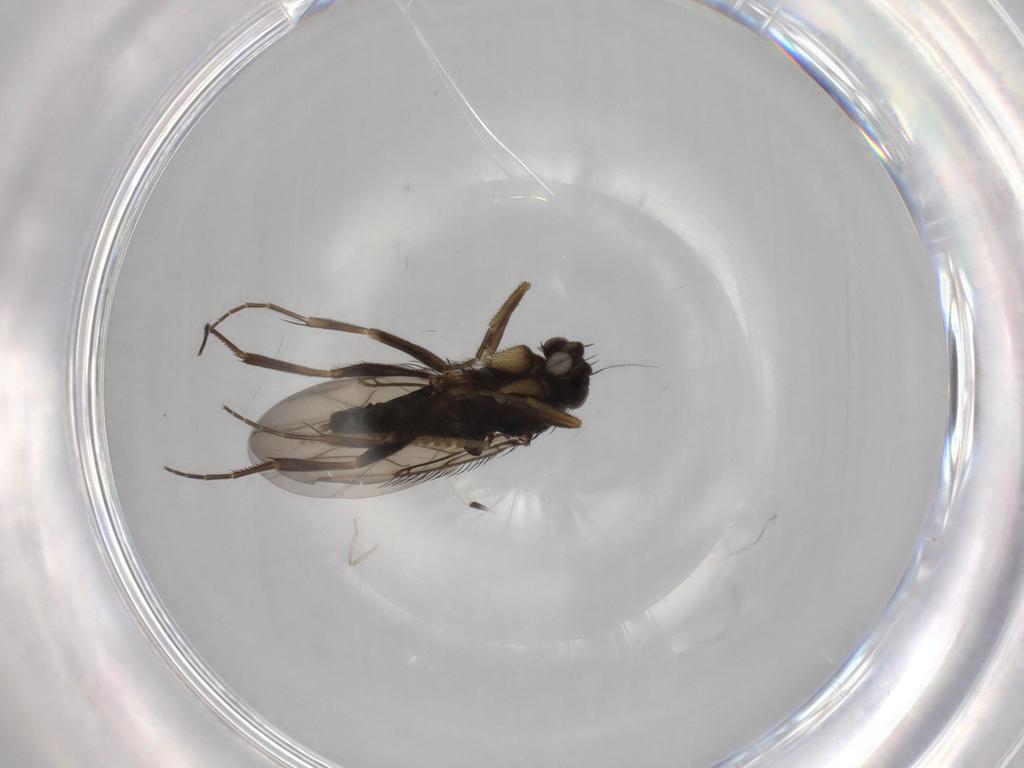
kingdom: Animalia
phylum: Arthropoda
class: Insecta
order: Diptera
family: Phoridae
